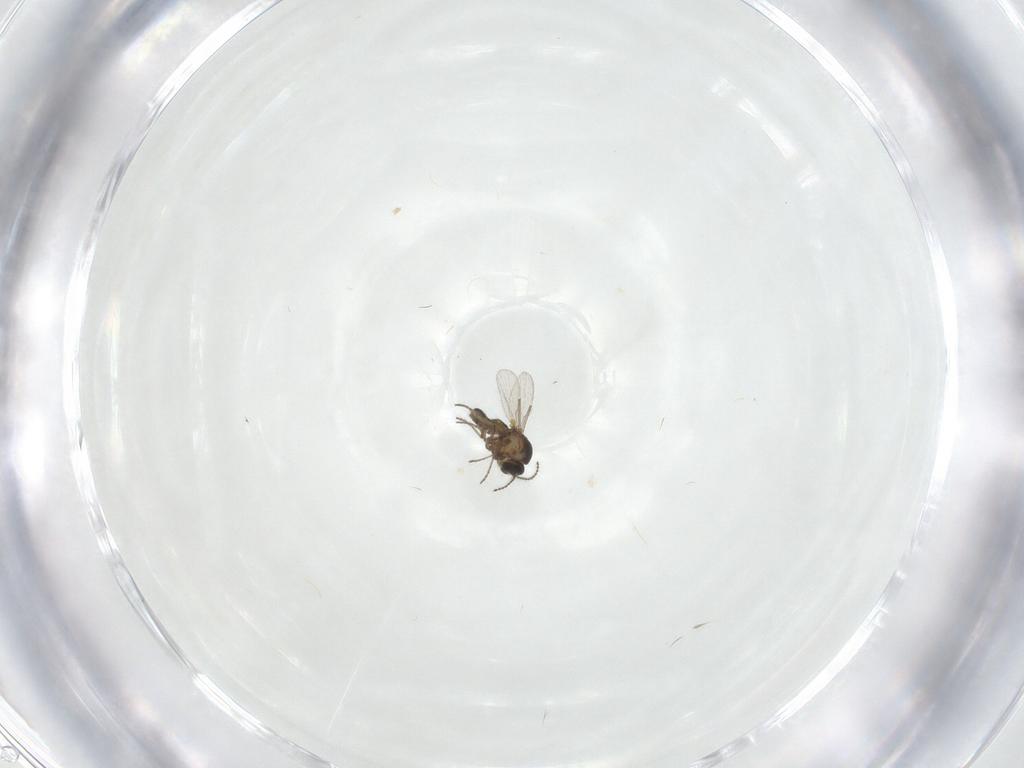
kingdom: Animalia
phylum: Arthropoda
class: Insecta
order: Diptera
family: Ceratopogonidae
